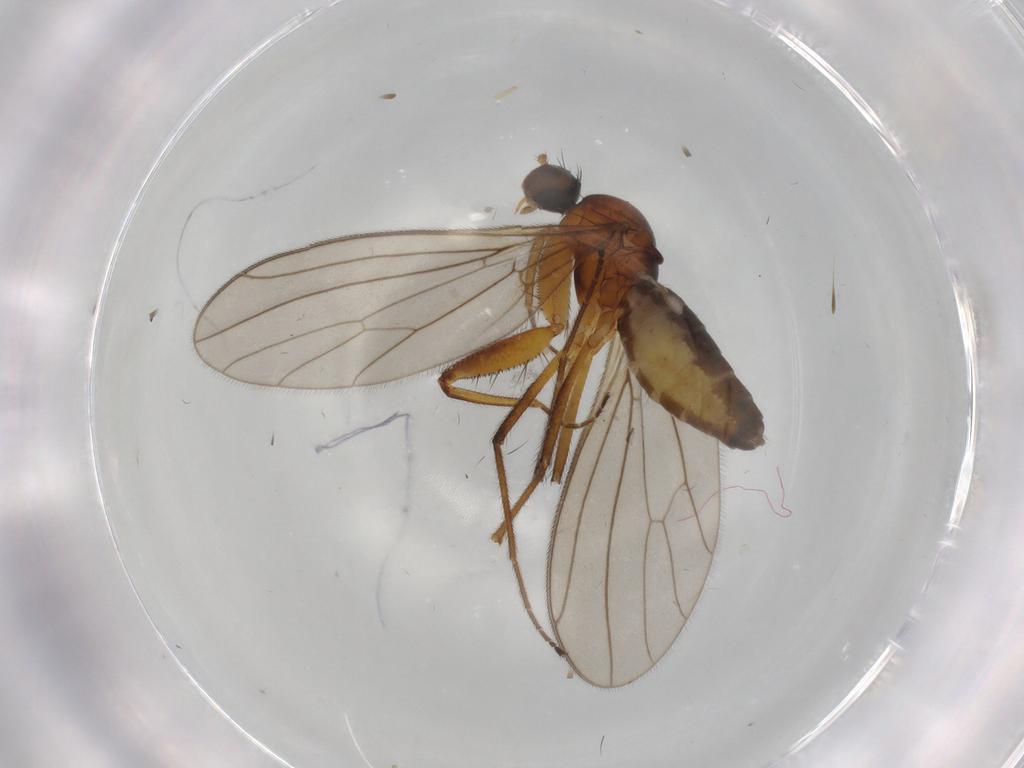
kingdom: Animalia
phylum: Arthropoda
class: Insecta
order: Diptera
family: Empididae
